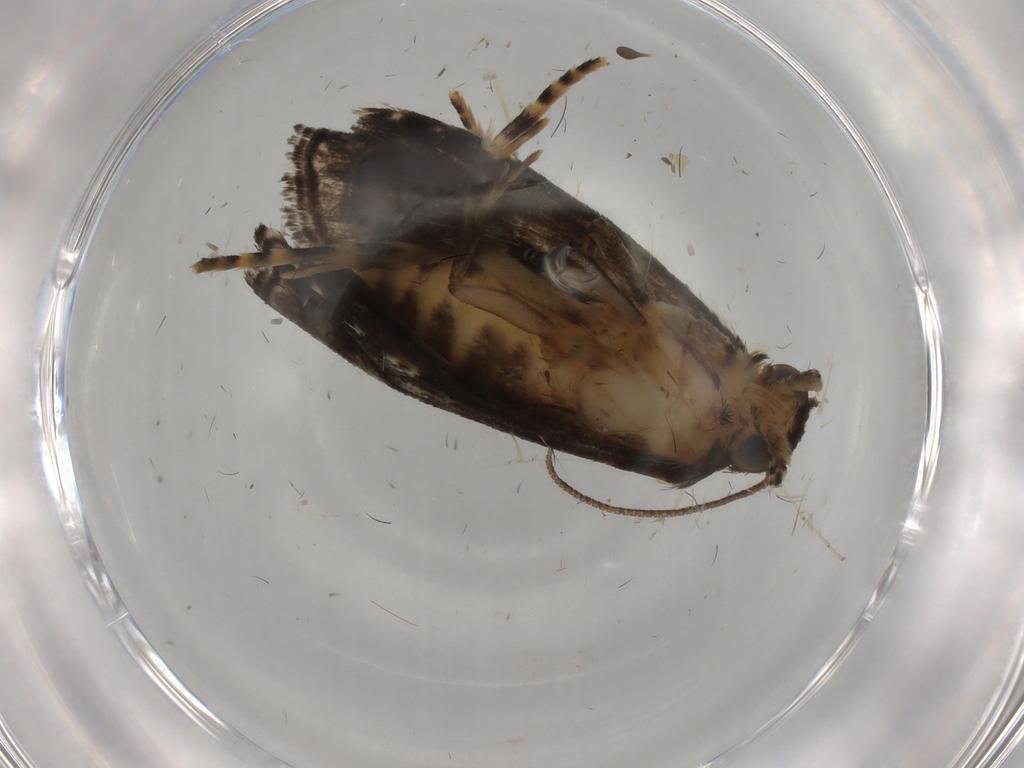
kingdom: Animalia
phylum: Arthropoda
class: Insecta
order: Lepidoptera
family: Immidae
